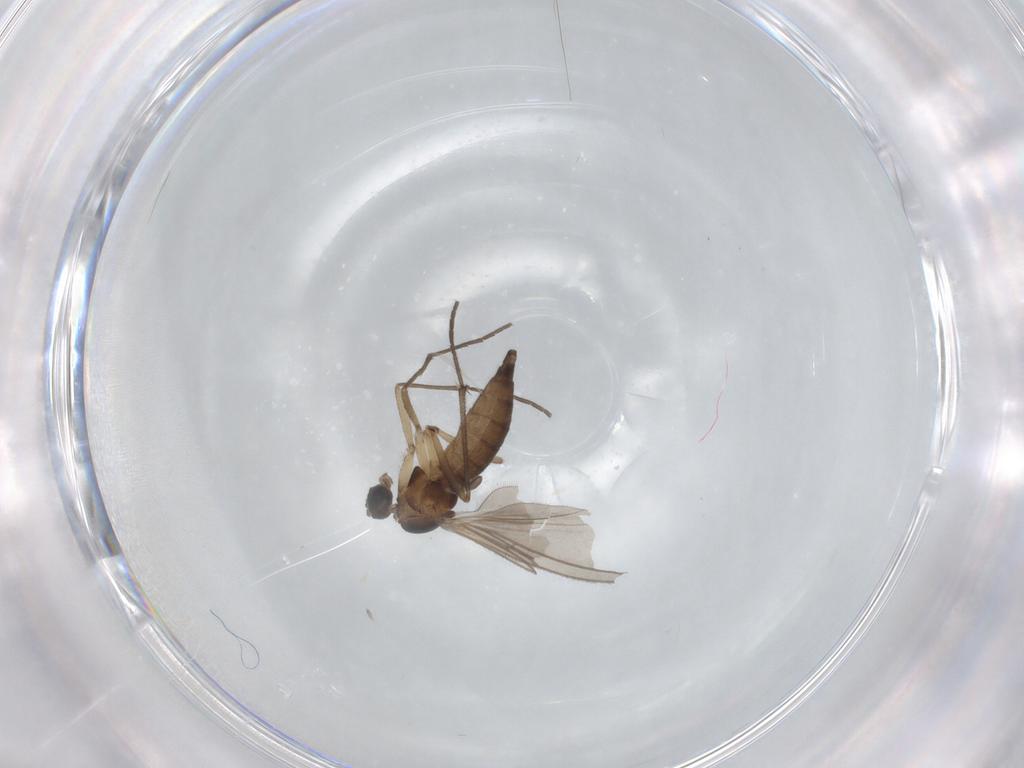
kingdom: Animalia
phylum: Arthropoda
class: Insecta
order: Diptera
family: Sciaridae
